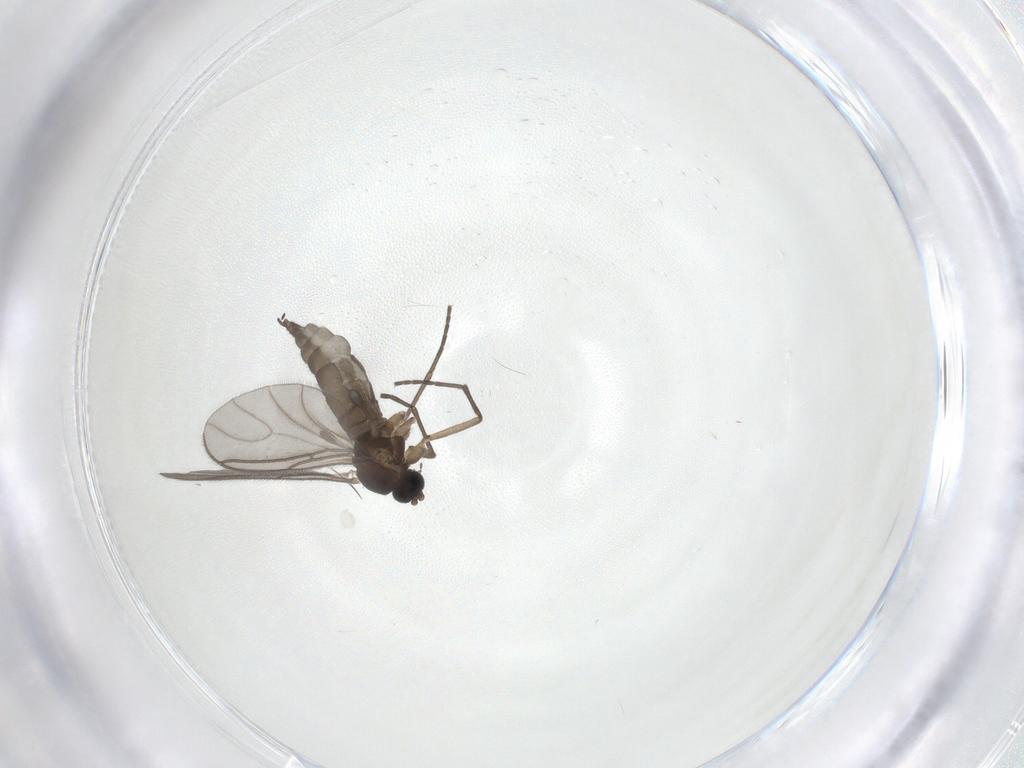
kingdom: Animalia
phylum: Arthropoda
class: Insecta
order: Diptera
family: Sciaridae
